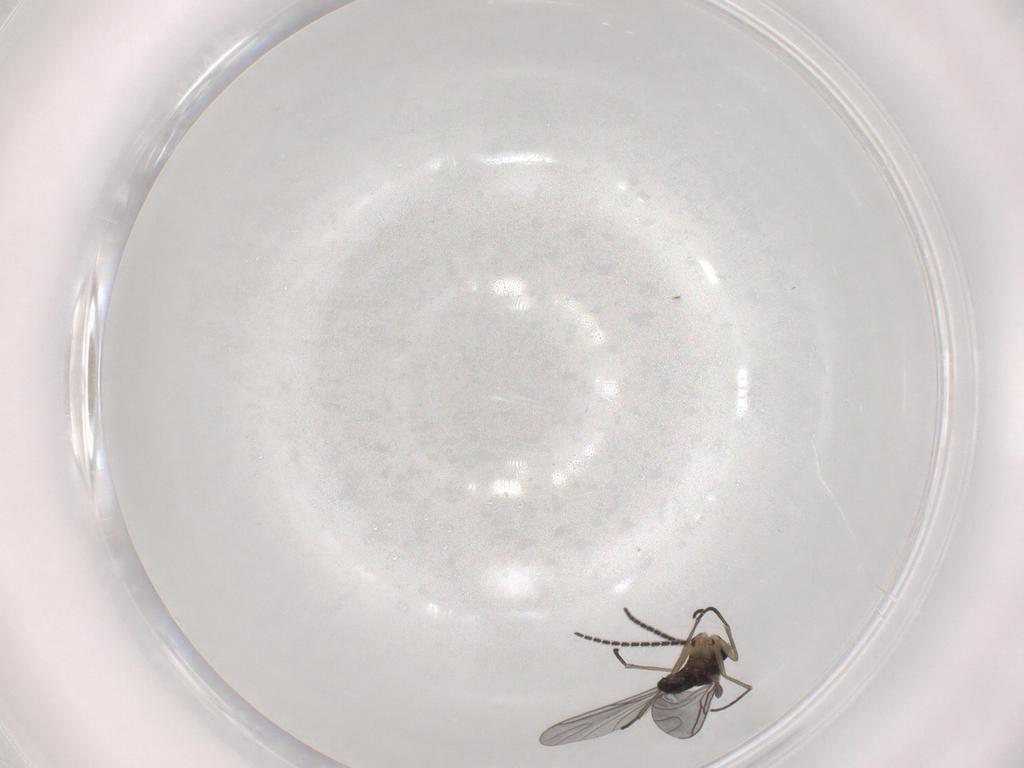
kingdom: Animalia
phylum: Arthropoda
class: Insecta
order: Diptera
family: Sciaridae
